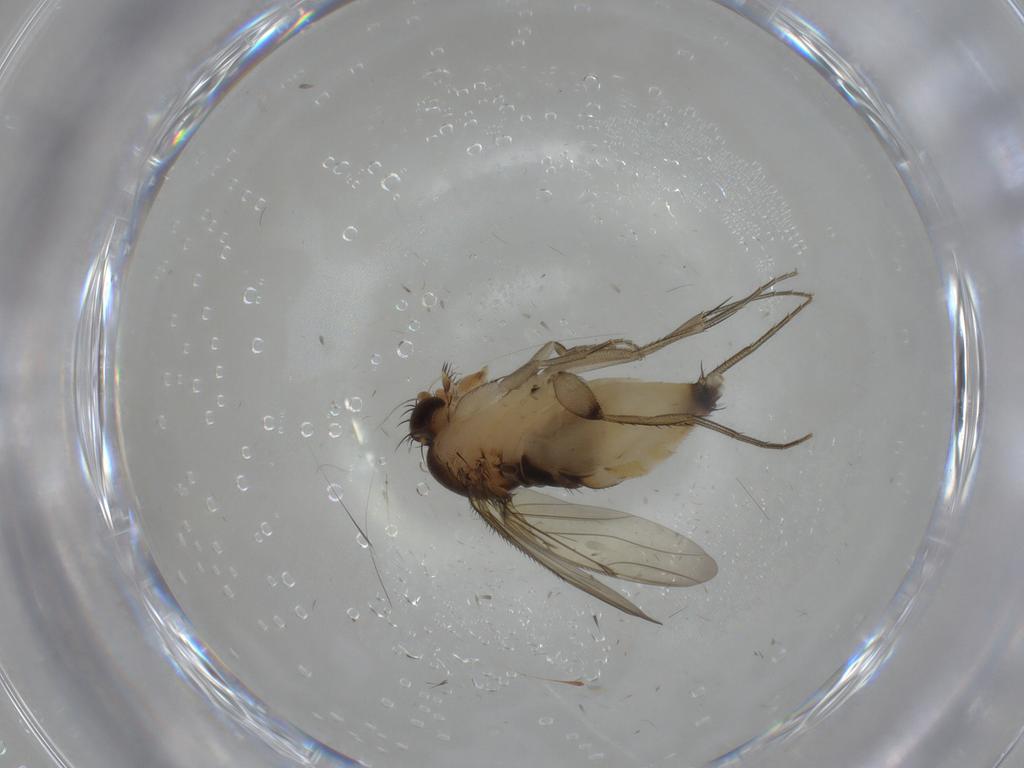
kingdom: Animalia
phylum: Arthropoda
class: Insecta
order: Diptera
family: Phoridae
